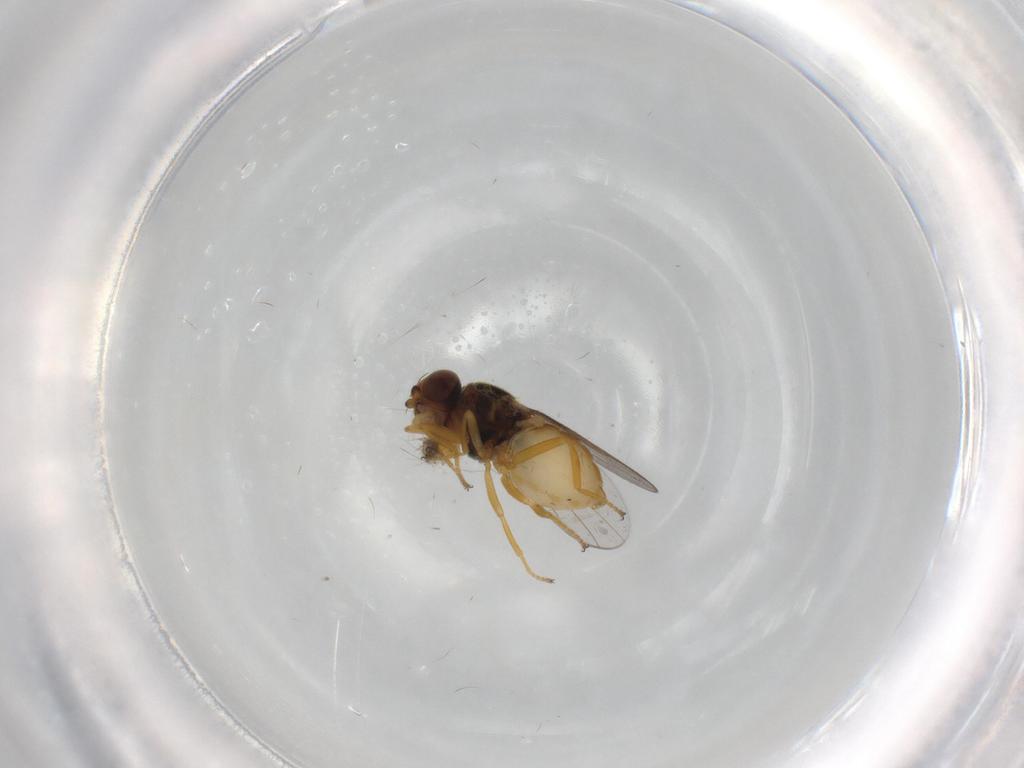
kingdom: Animalia
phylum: Arthropoda
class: Insecta
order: Diptera
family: Chloropidae
